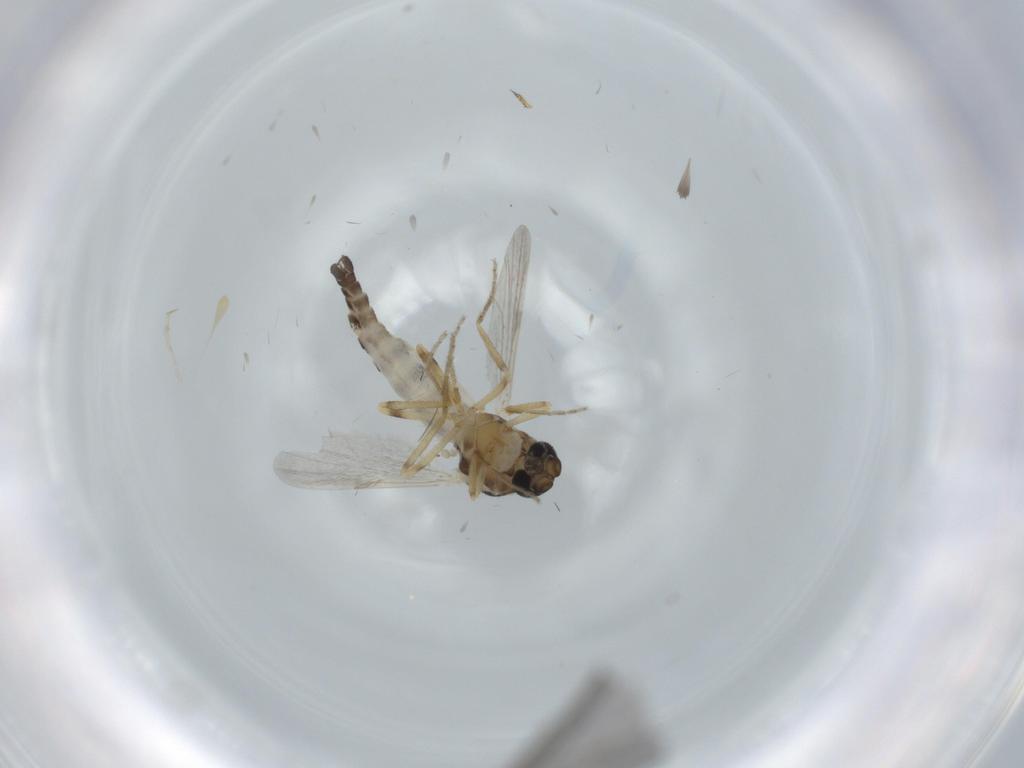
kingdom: Animalia
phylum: Arthropoda
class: Insecta
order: Diptera
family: Ceratopogonidae
